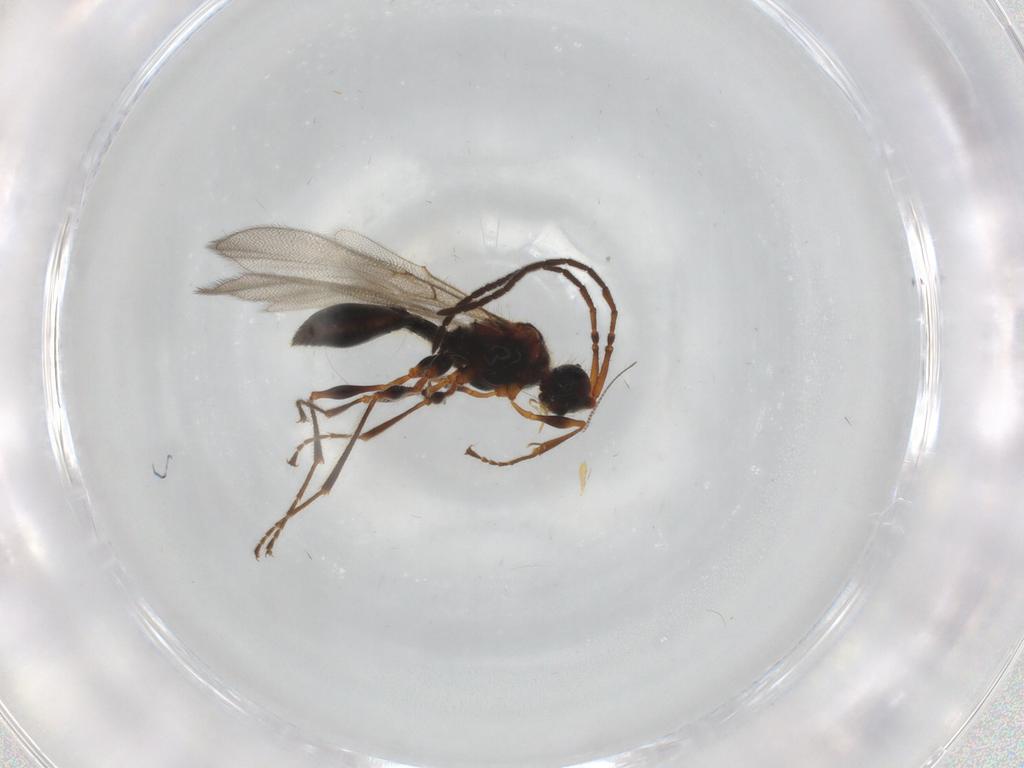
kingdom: Animalia
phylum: Arthropoda
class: Insecta
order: Hymenoptera
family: Diapriidae
